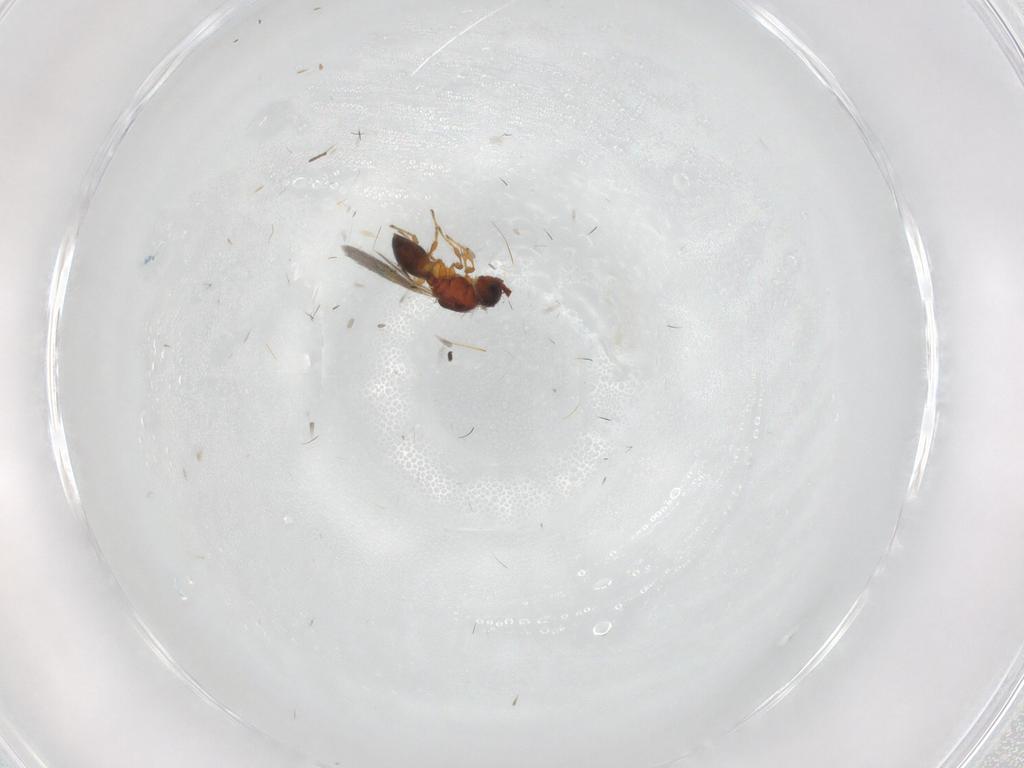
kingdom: Animalia
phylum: Arthropoda
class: Insecta
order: Hymenoptera
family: Diapriidae
